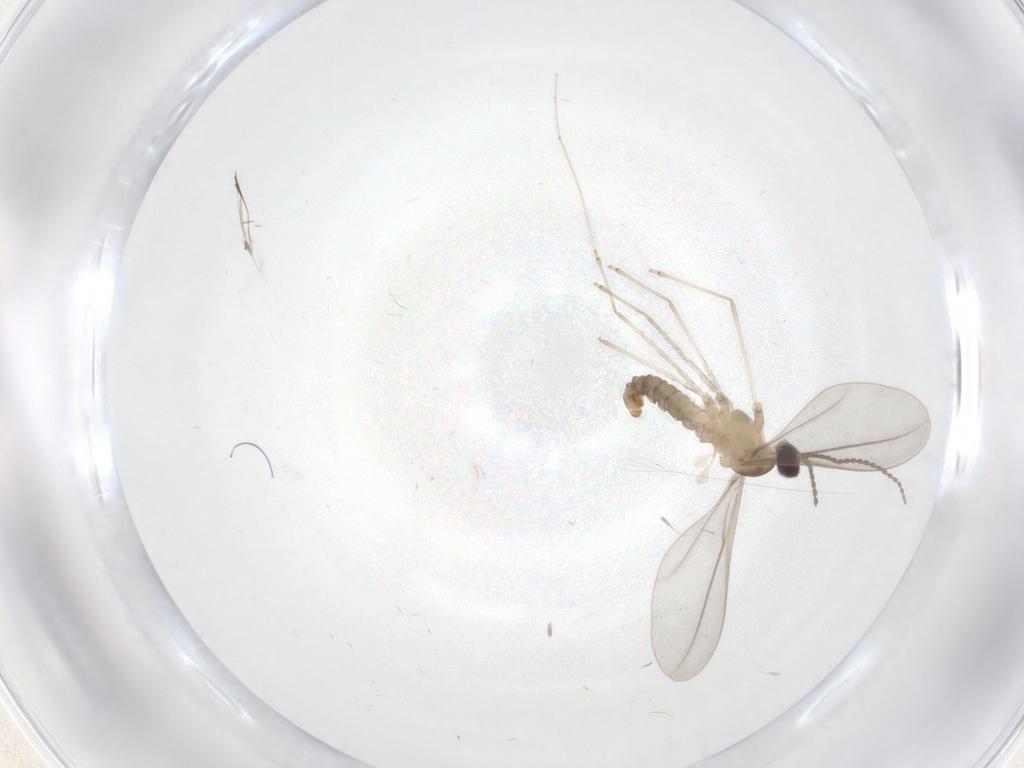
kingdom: Animalia
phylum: Arthropoda
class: Insecta
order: Diptera
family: Cecidomyiidae
